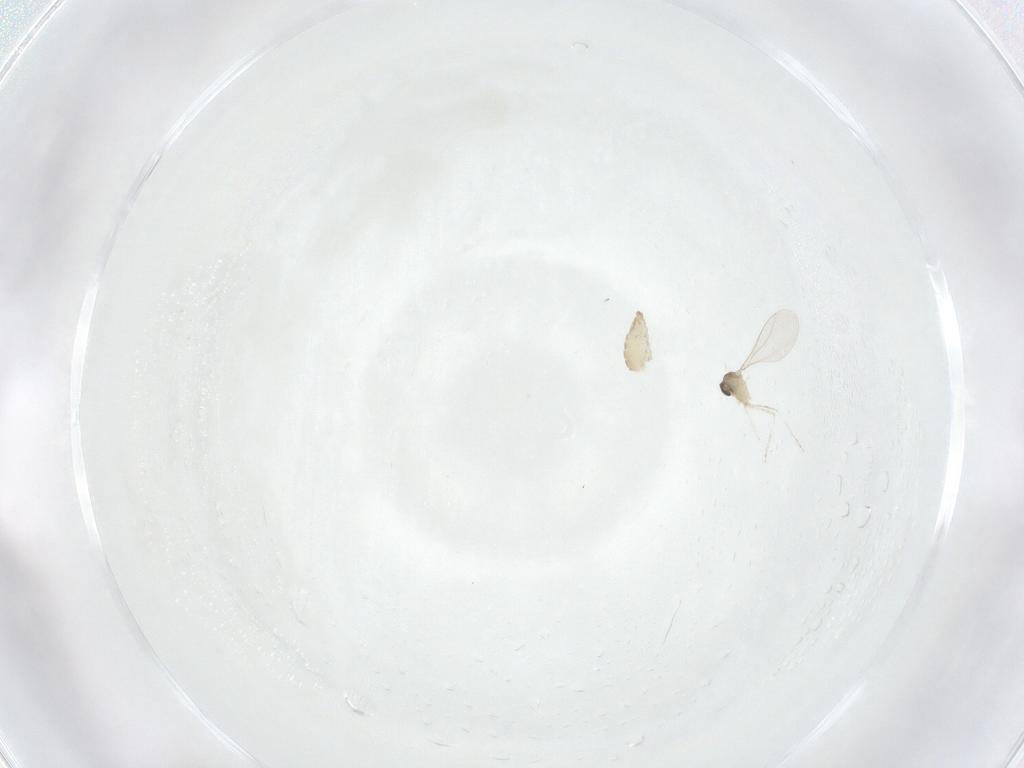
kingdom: Animalia
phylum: Arthropoda
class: Insecta
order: Diptera
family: Cecidomyiidae
